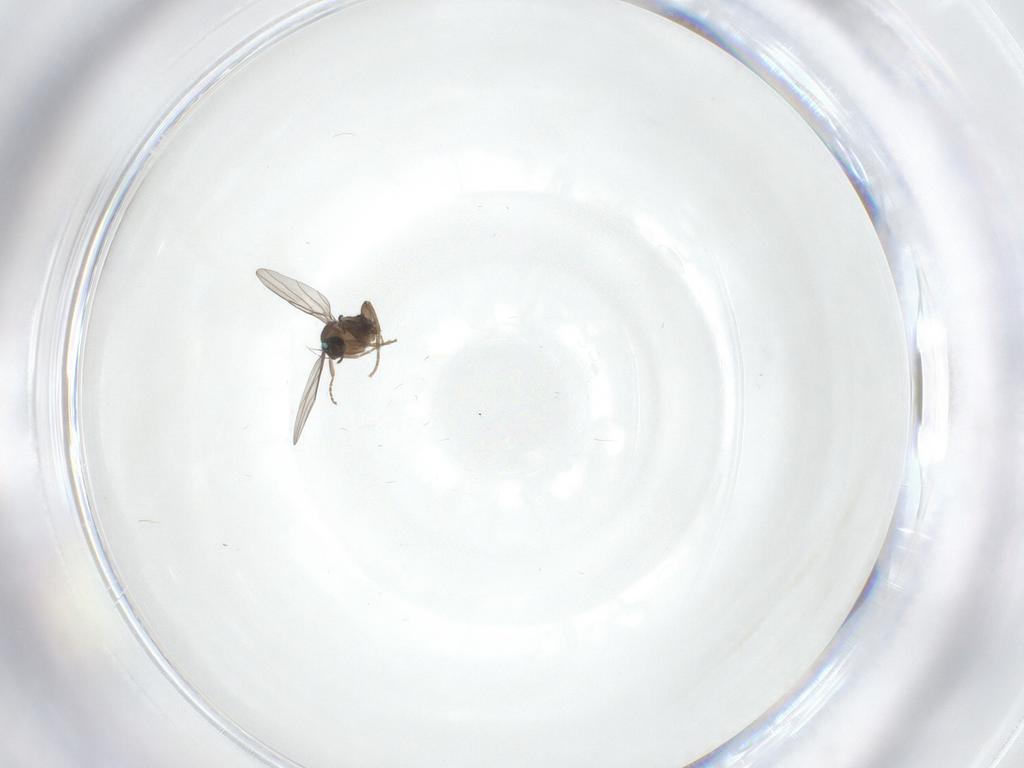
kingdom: Animalia
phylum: Arthropoda
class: Insecta
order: Diptera
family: Phoridae
